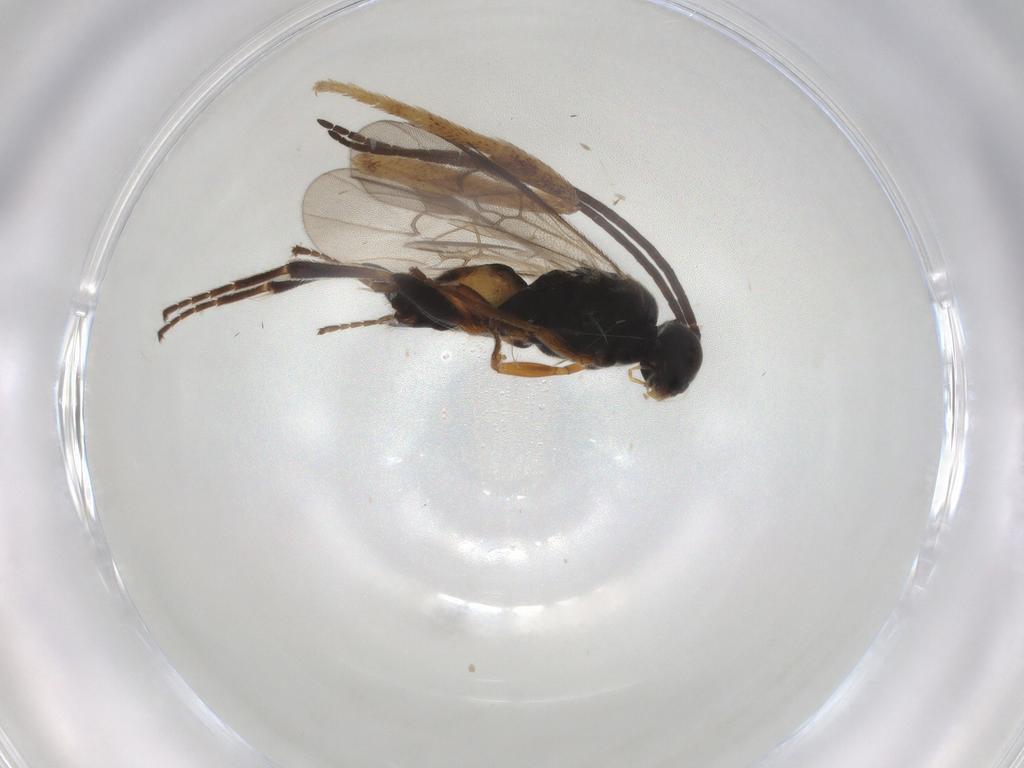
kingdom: Animalia
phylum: Arthropoda
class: Insecta
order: Hymenoptera
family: Braconidae
